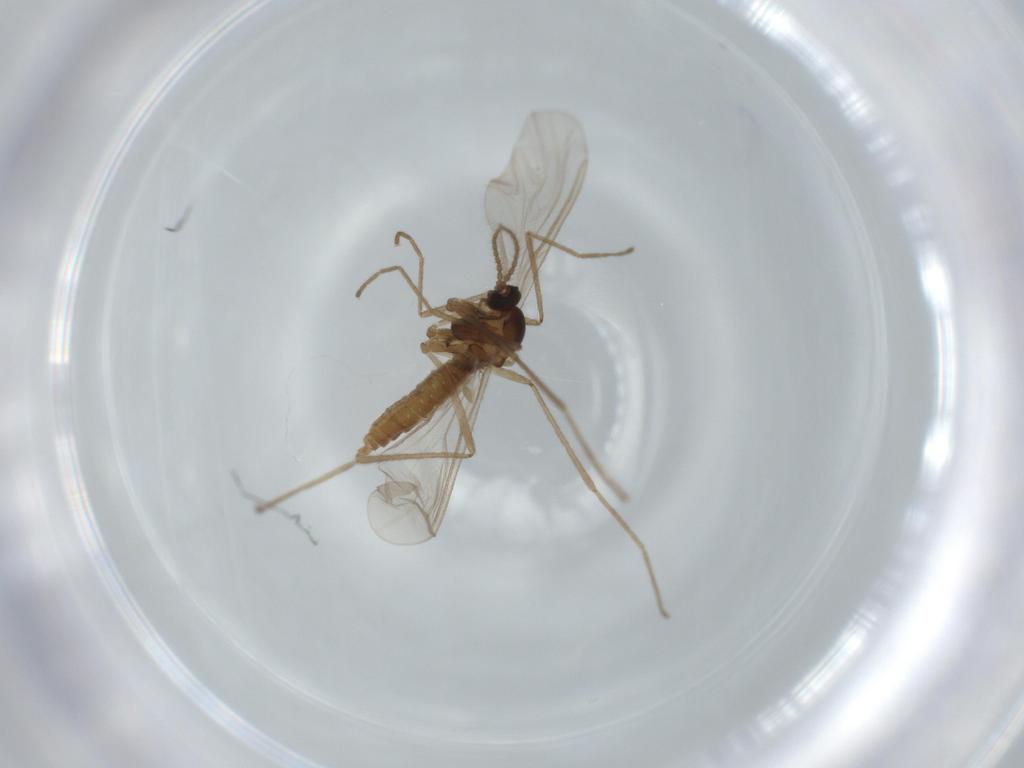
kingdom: Animalia
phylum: Arthropoda
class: Insecta
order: Diptera
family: Cecidomyiidae
